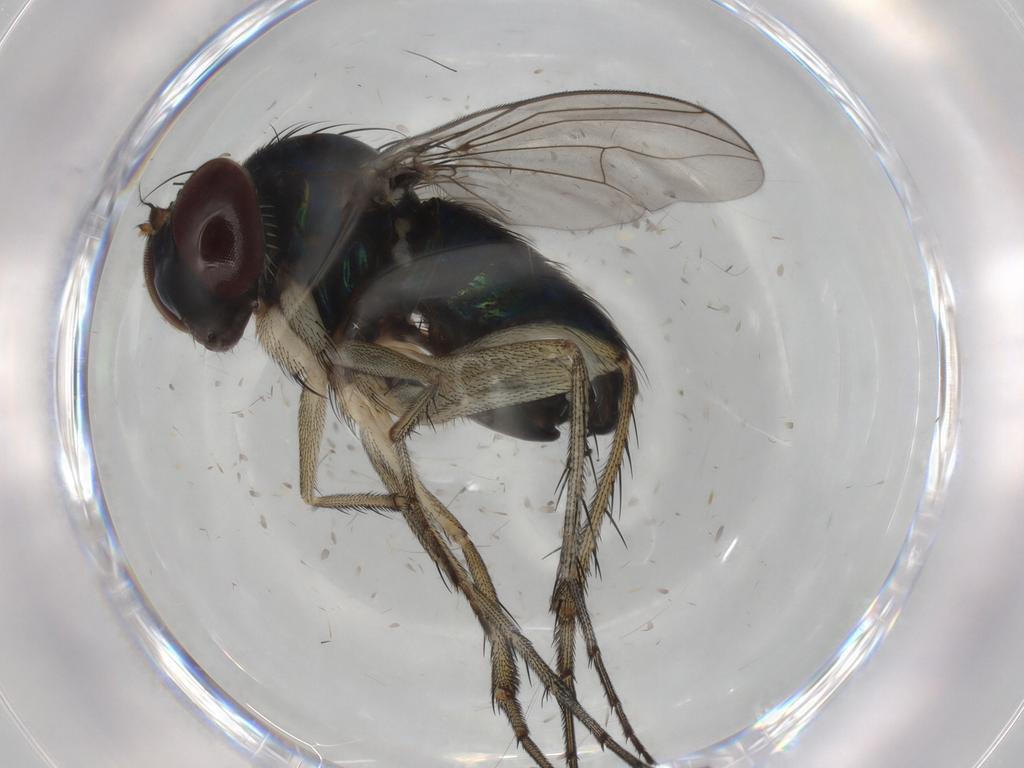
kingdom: Animalia
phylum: Arthropoda
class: Insecta
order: Diptera
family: Dolichopodidae
